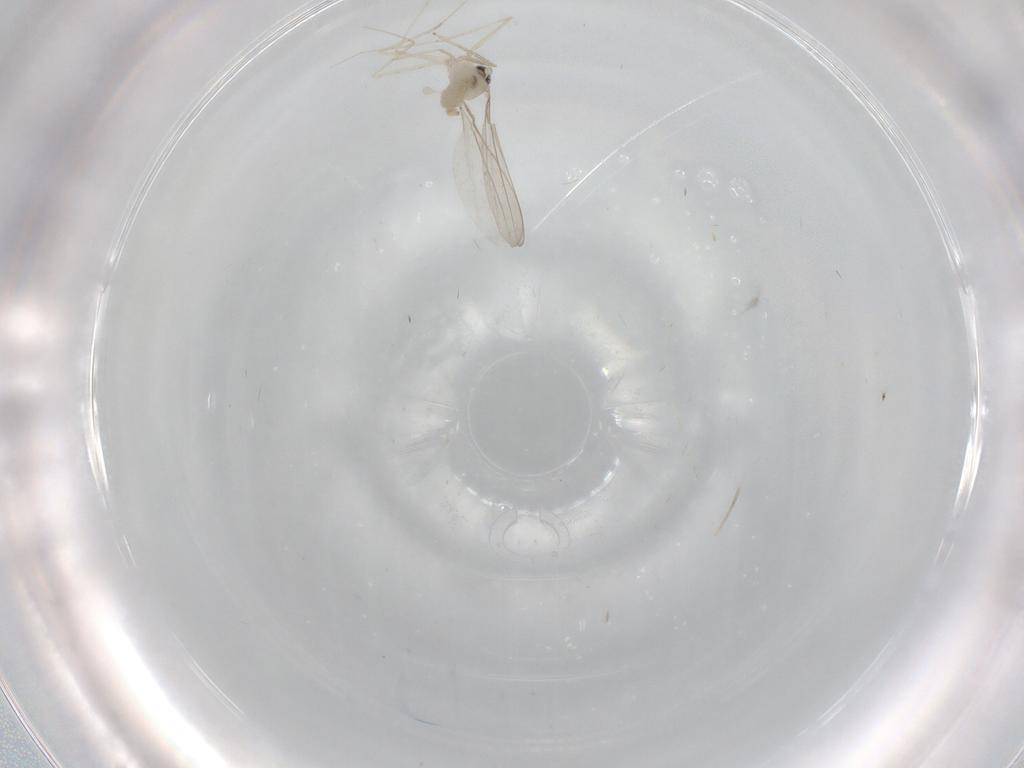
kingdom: Animalia
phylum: Arthropoda
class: Insecta
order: Diptera
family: Cecidomyiidae
